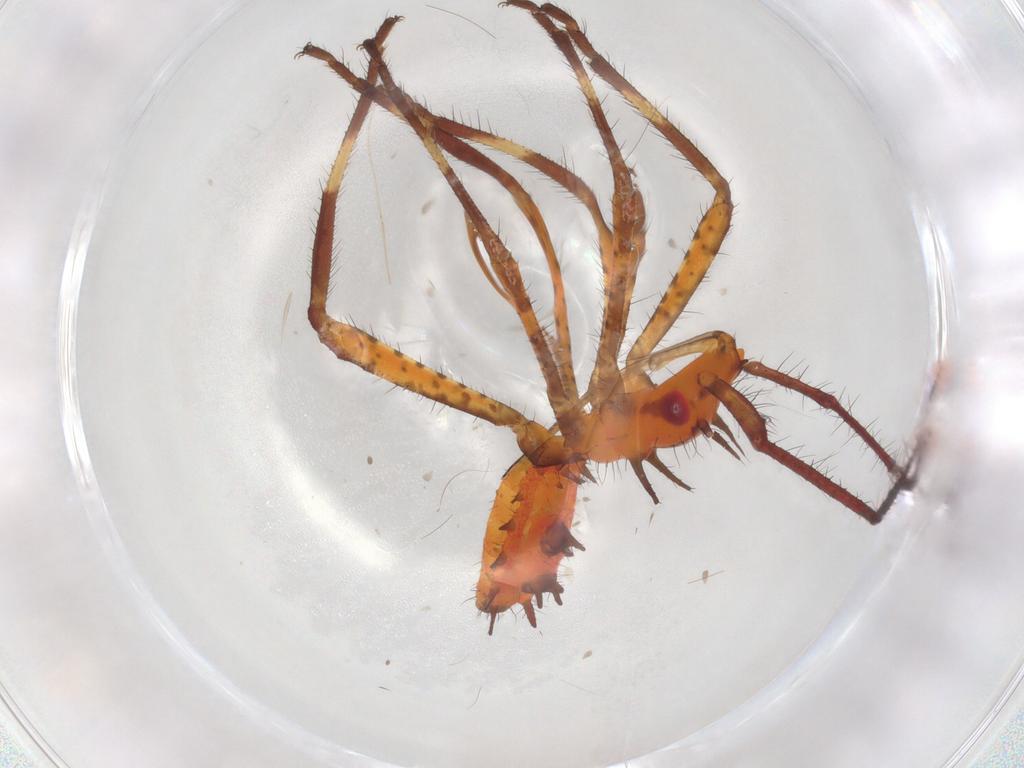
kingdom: Animalia
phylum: Arthropoda
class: Insecta
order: Hemiptera
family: Coreidae
